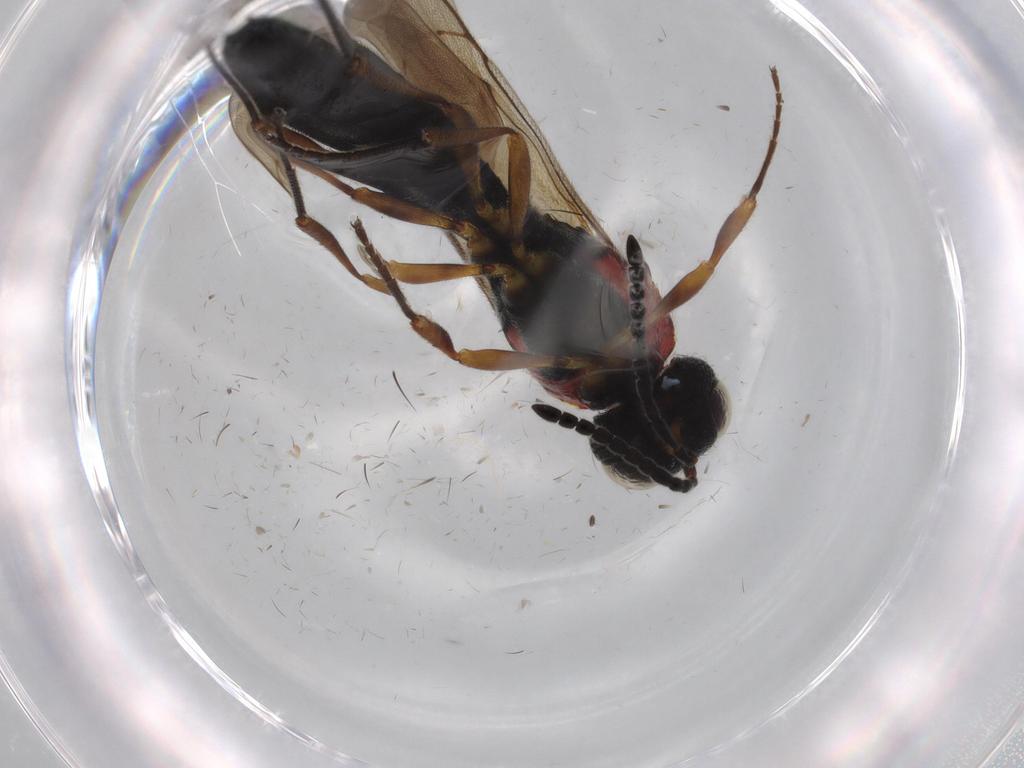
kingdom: Animalia
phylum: Arthropoda
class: Insecta
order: Hymenoptera
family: Scelionidae
